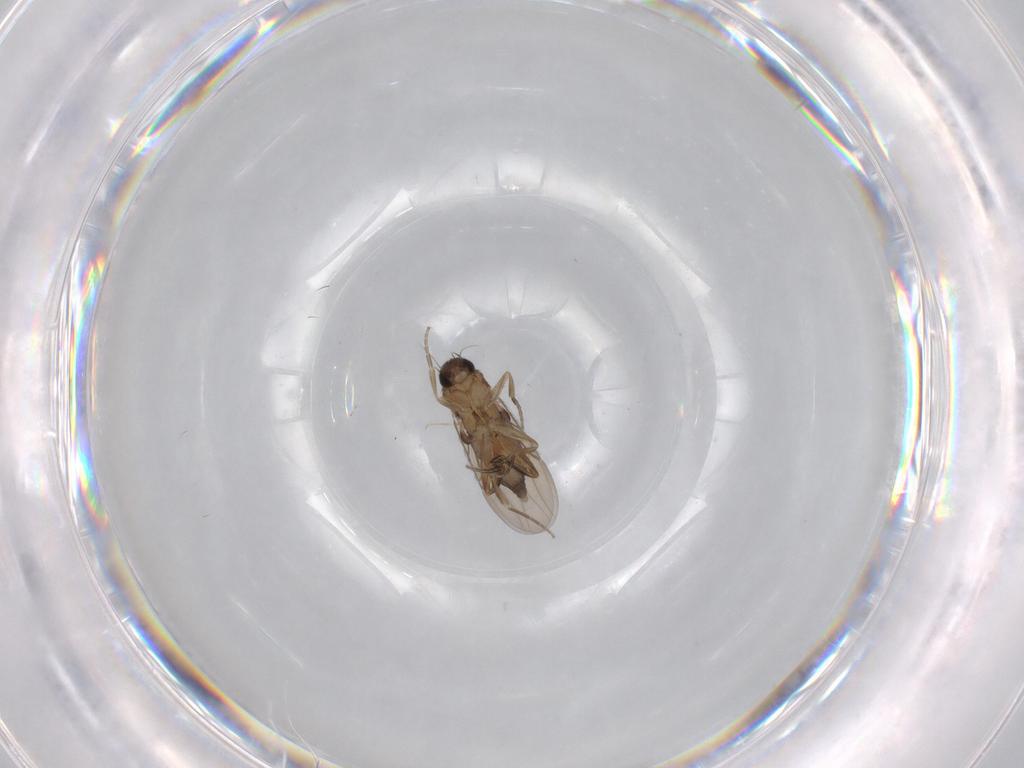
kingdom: Animalia
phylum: Arthropoda
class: Insecta
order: Diptera
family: Phoridae
